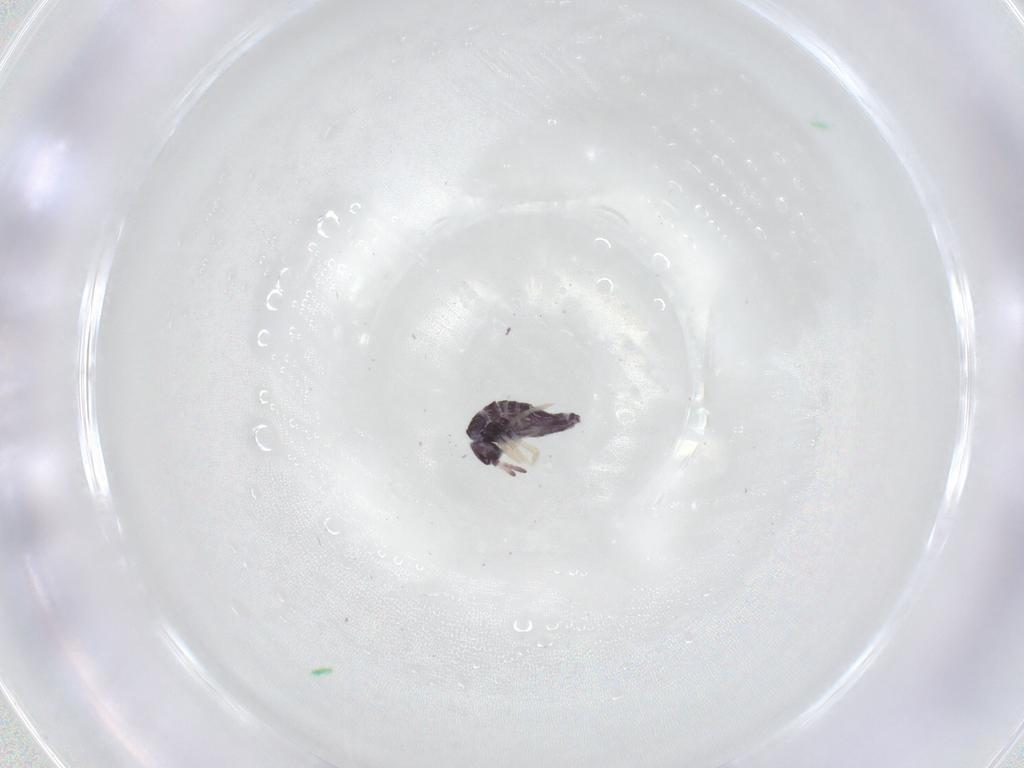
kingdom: Animalia
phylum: Arthropoda
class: Collembola
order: Entomobryomorpha
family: Entomobryidae
